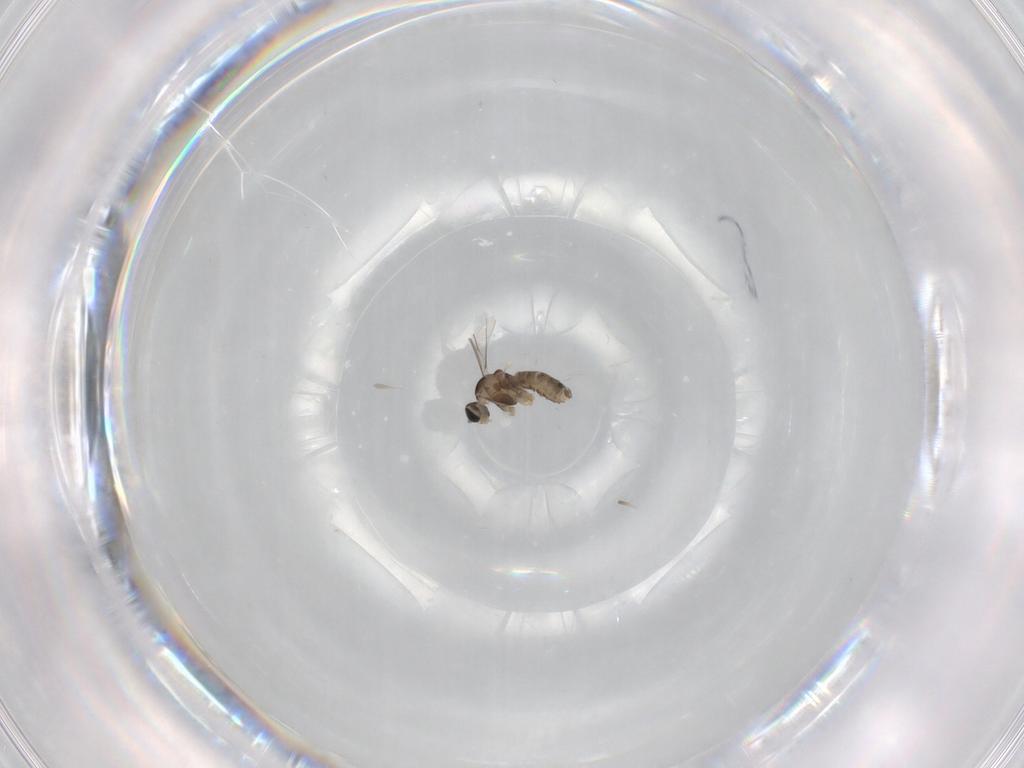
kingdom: Animalia
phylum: Arthropoda
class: Insecta
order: Diptera
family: Cecidomyiidae
